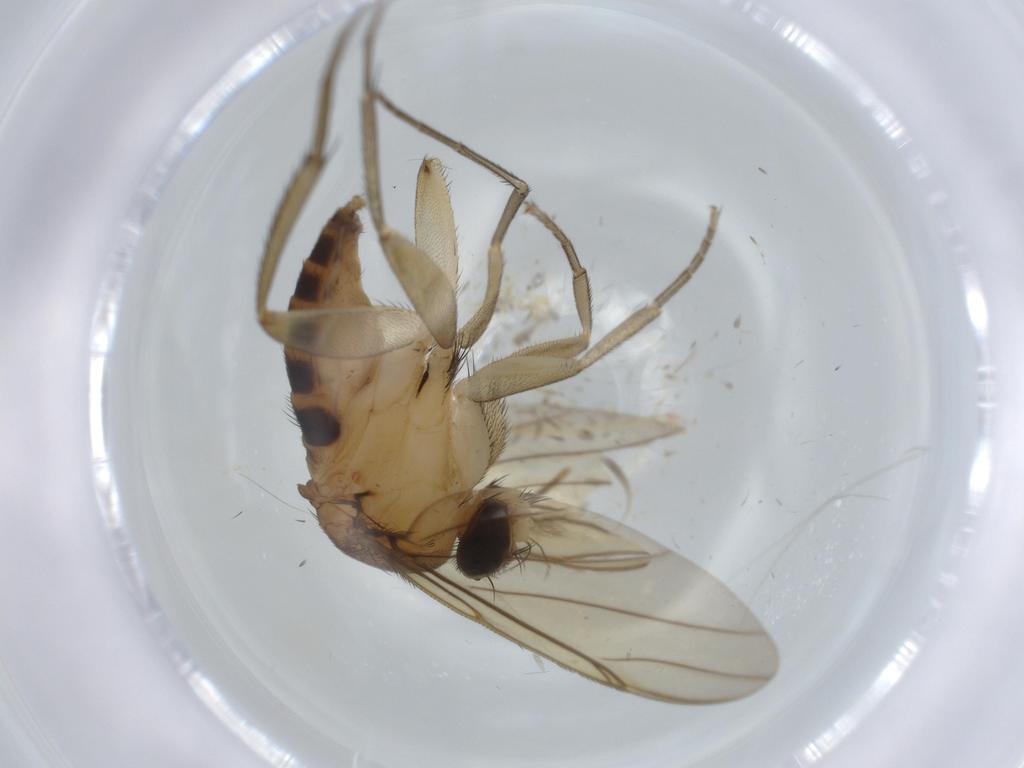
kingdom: Animalia
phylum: Arthropoda
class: Insecta
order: Diptera
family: Sciaridae
